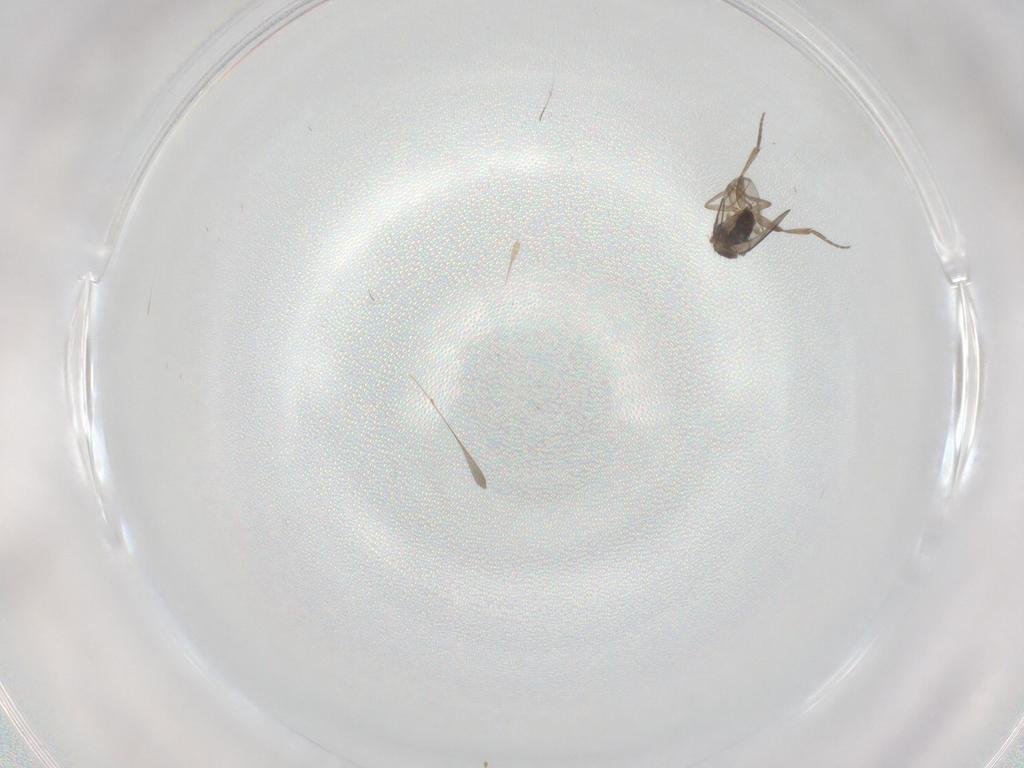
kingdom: Animalia
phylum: Arthropoda
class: Insecta
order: Diptera
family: Phoridae
